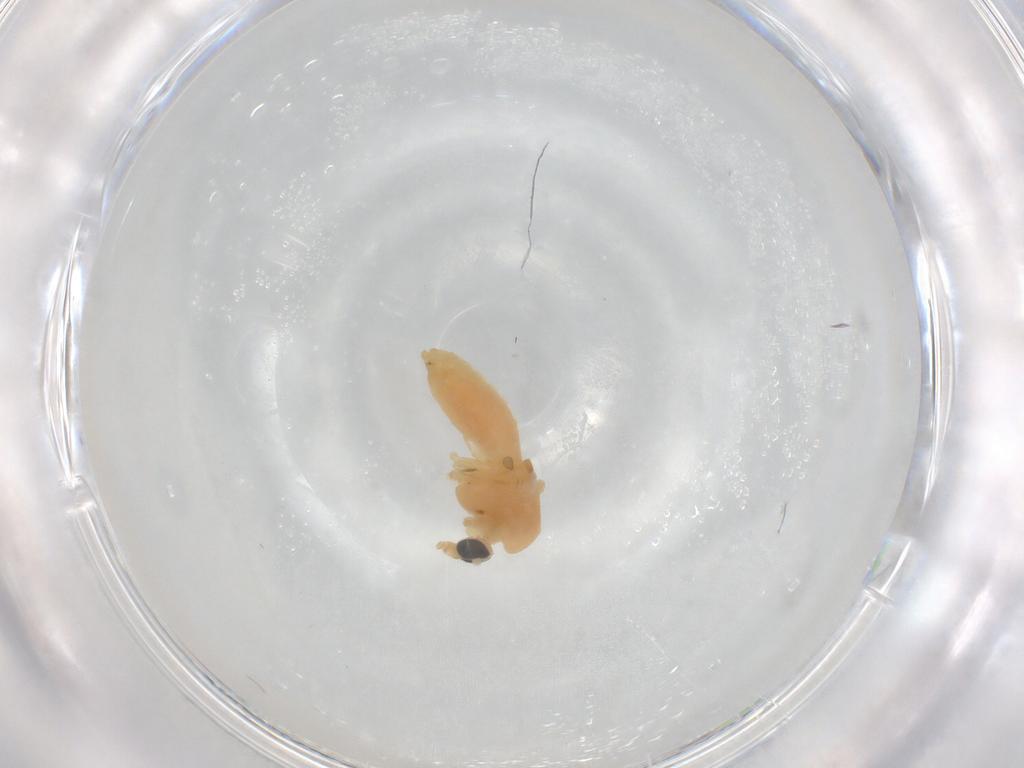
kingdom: Animalia
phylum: Arthropoda
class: Insecta
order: Diptera
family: Chironomidae
